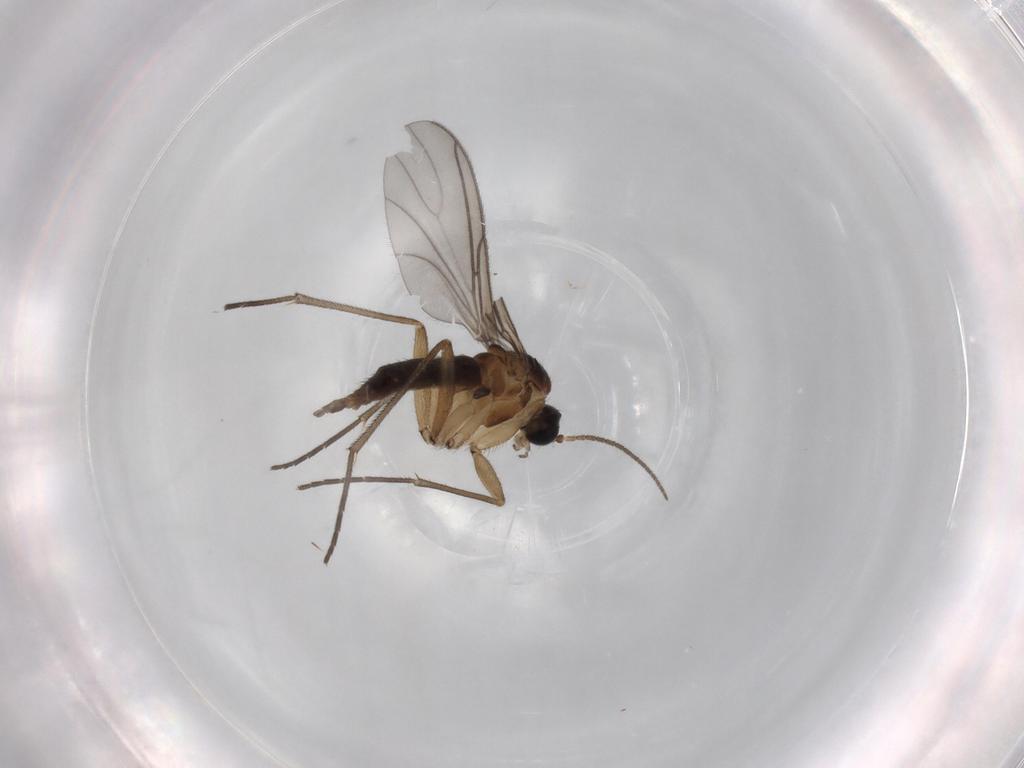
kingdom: Animalia
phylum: Arthropoda
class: Insecta
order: Diptera
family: Sciaridae
